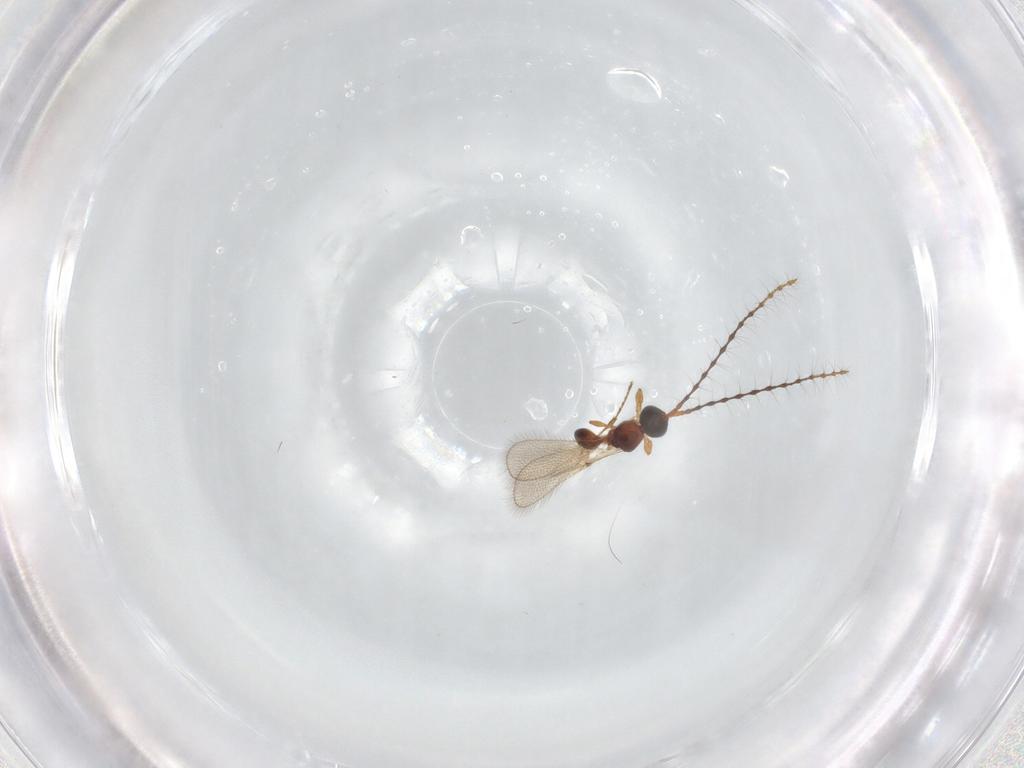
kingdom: Animalia
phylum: Arthropoda
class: Insecta
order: Hymenoptera
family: Diapriidae
